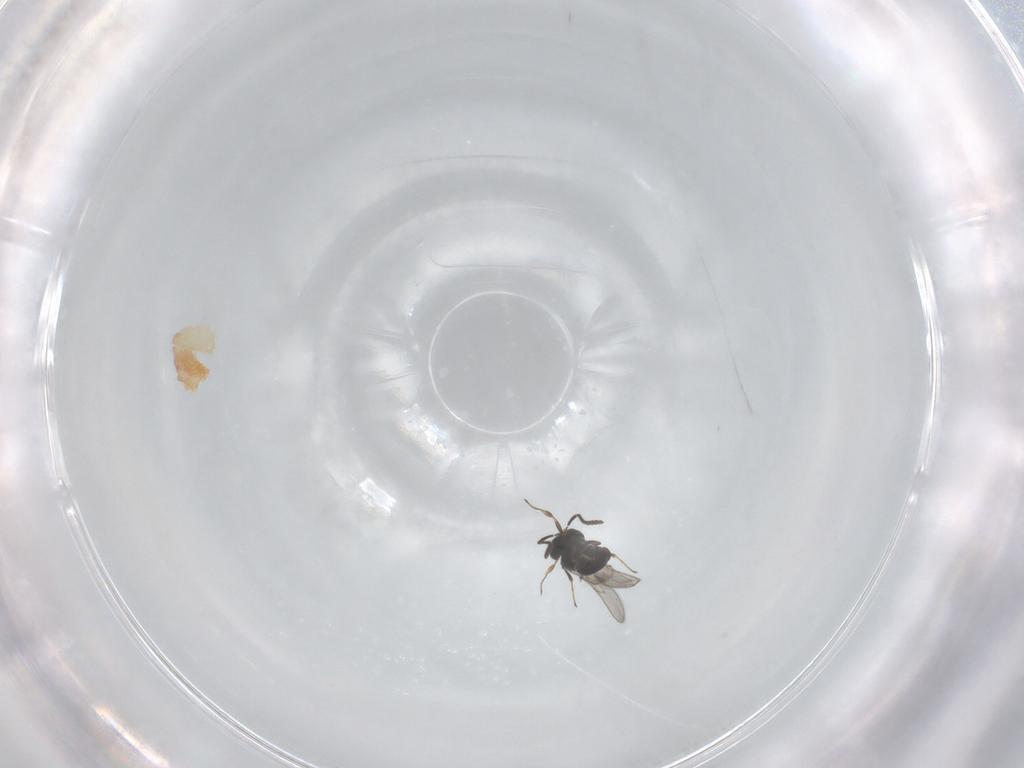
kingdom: Animalia
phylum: Arthropoda
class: Insecta
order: Hymenoptera
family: Scelionidae
